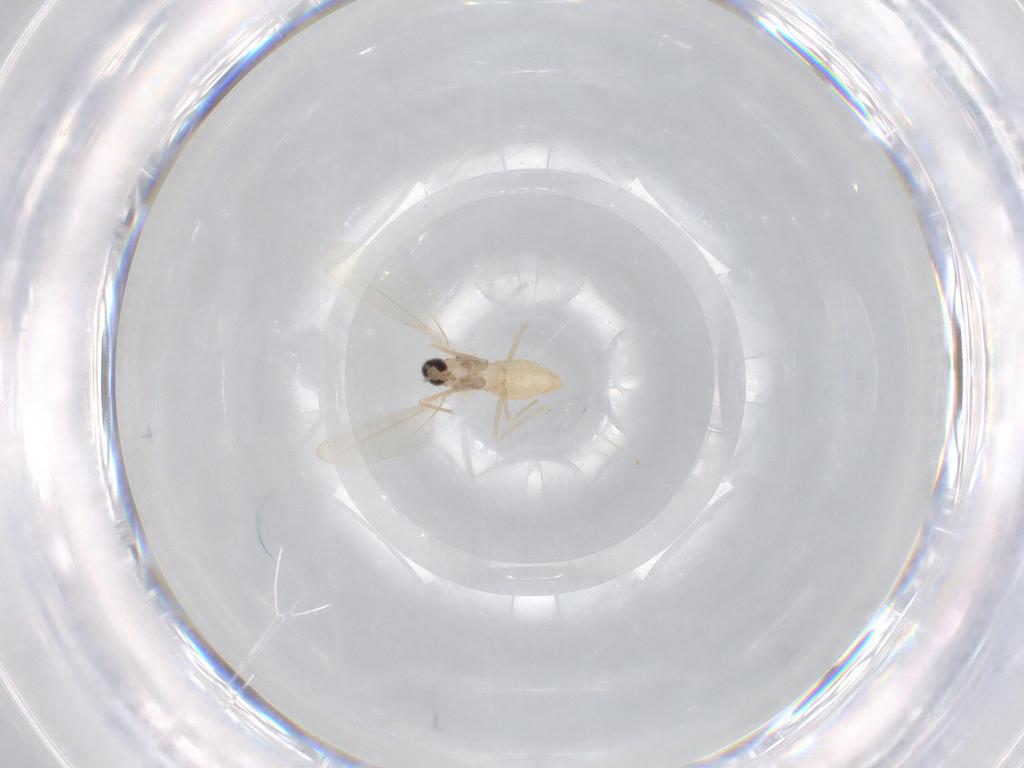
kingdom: Animalia
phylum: Arthropoda
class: Insecta
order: Diptera
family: Cecidomyiidae
